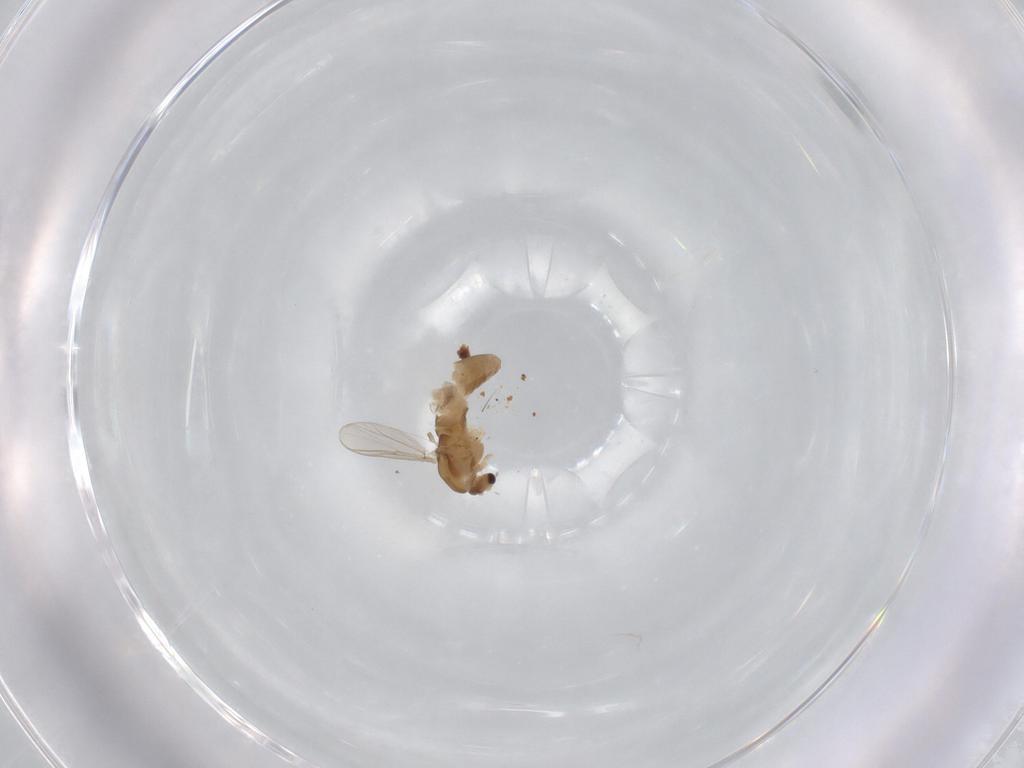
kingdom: Animalia
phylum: Arthropoda
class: Insecta
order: Diptera
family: Chironomidae
